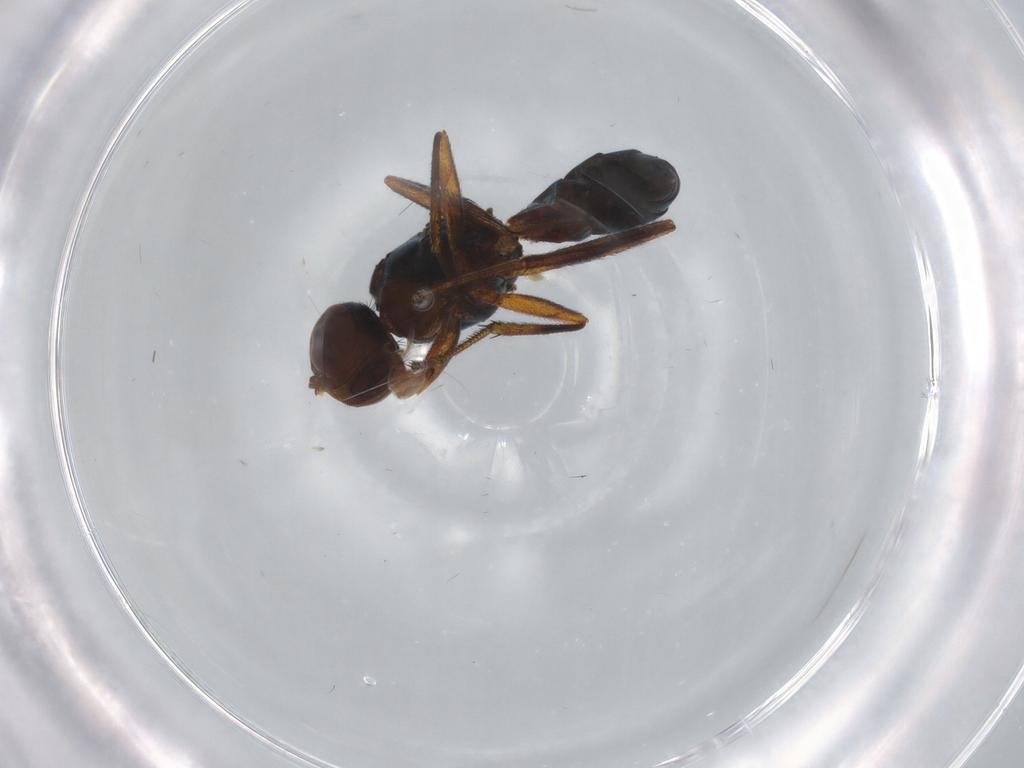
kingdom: Animalia
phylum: Arthropoda
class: Insecta
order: Diptera
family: Sepsidae
